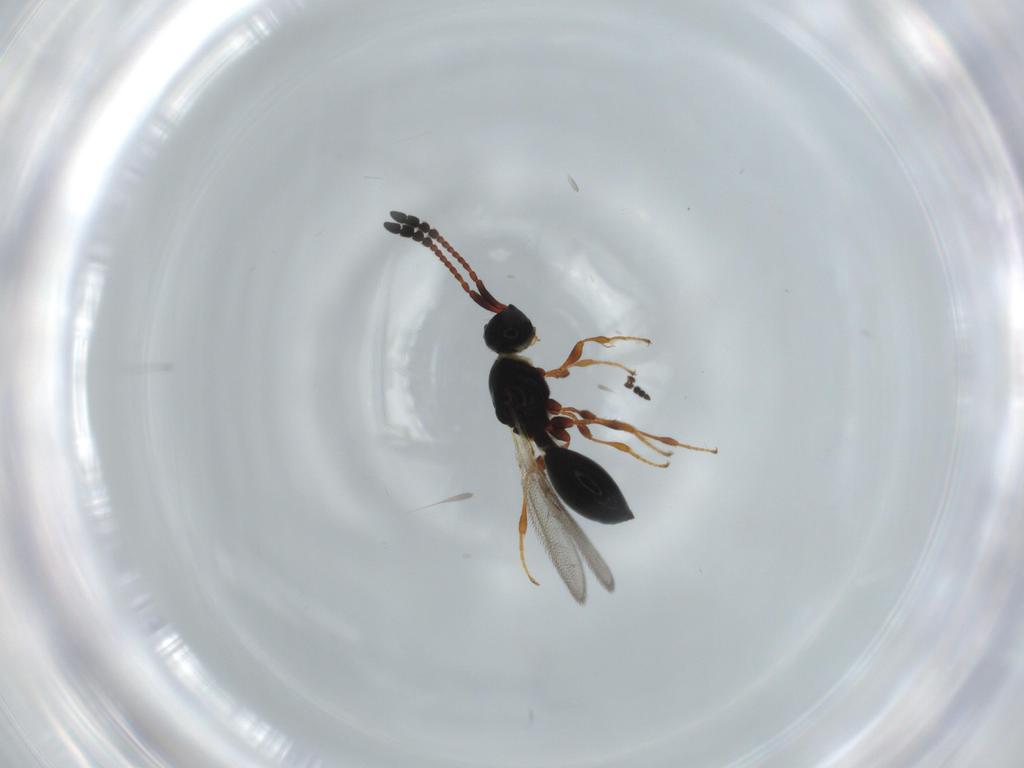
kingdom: Animalia
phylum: Arthropoda
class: Insecta
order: Hymenoptera
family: Diapriidae
